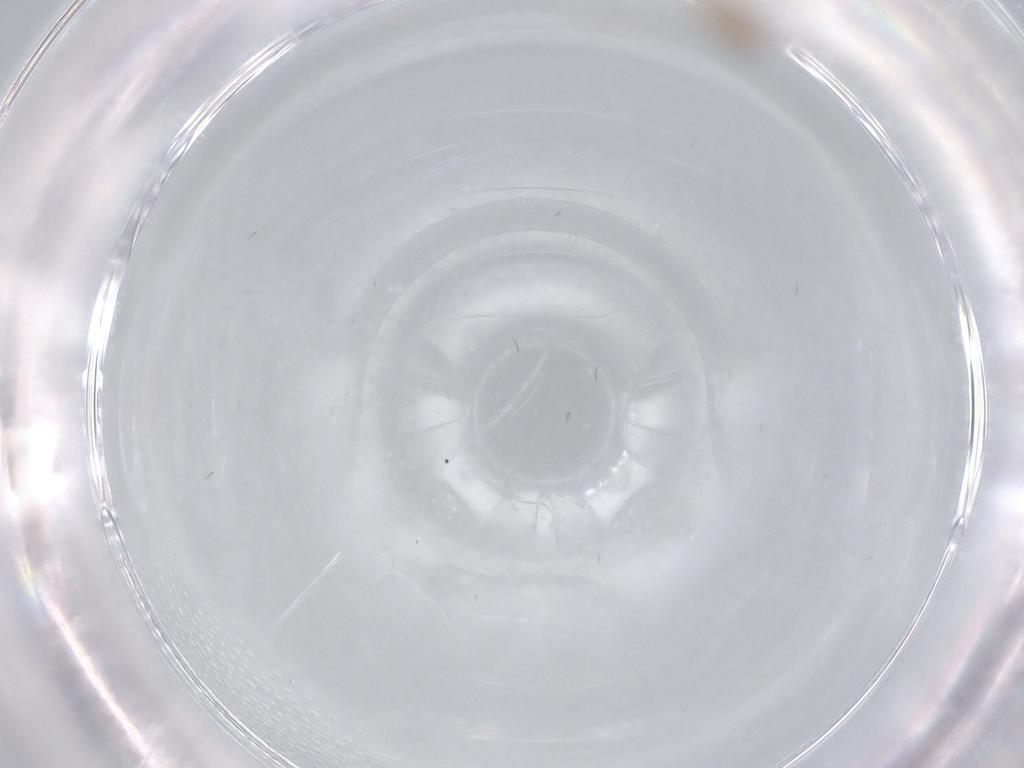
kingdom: Animalia
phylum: Arthropoda
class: Insecta
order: Diptera
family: Cecidomyiidae
